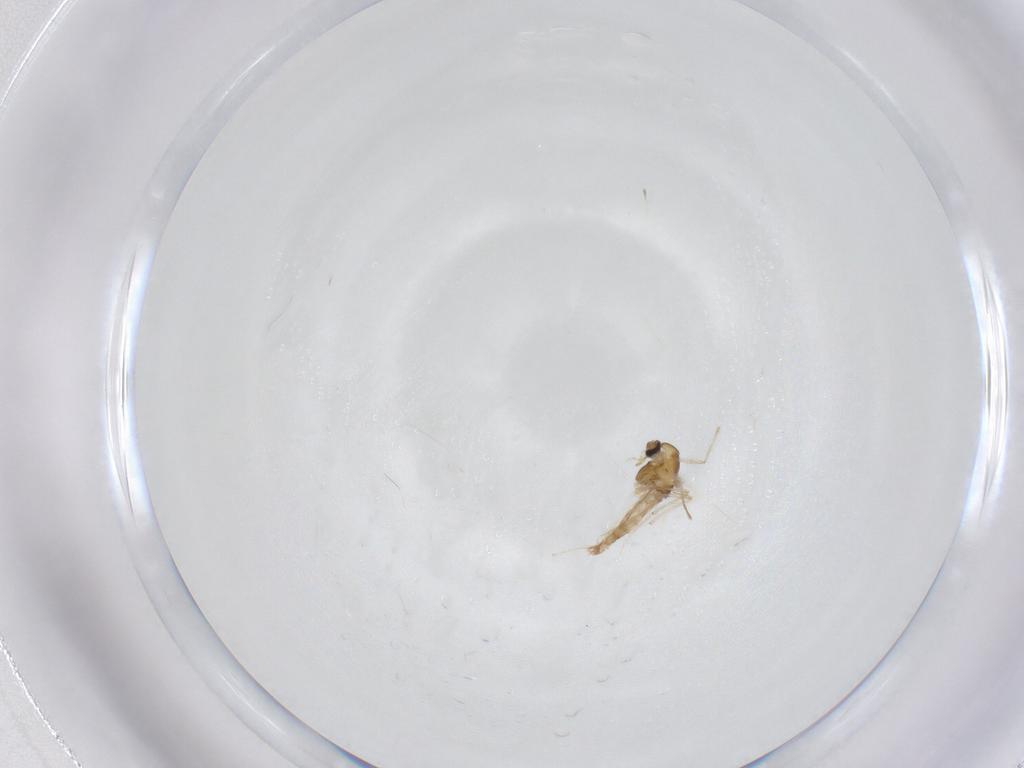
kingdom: Animalia
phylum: Arthropoda
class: Insecta
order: Diptera
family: Chironomidae
